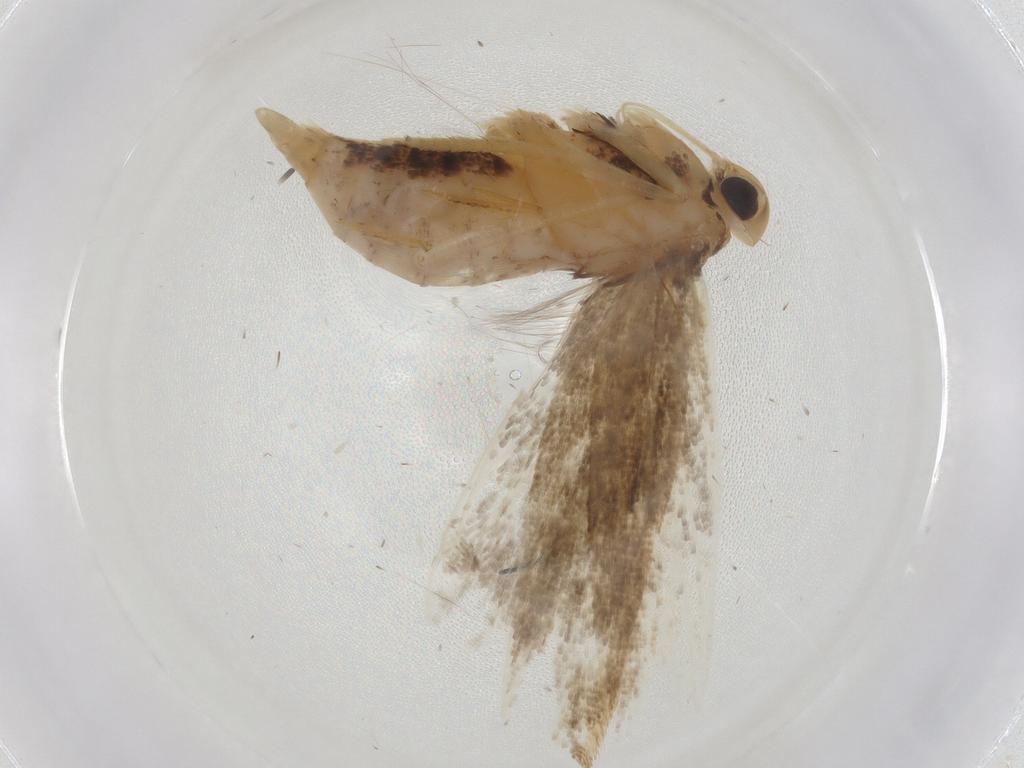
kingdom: Animalia
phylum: Arthropoda
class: Insecta
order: Lepidoptera
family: Gelechiidae
